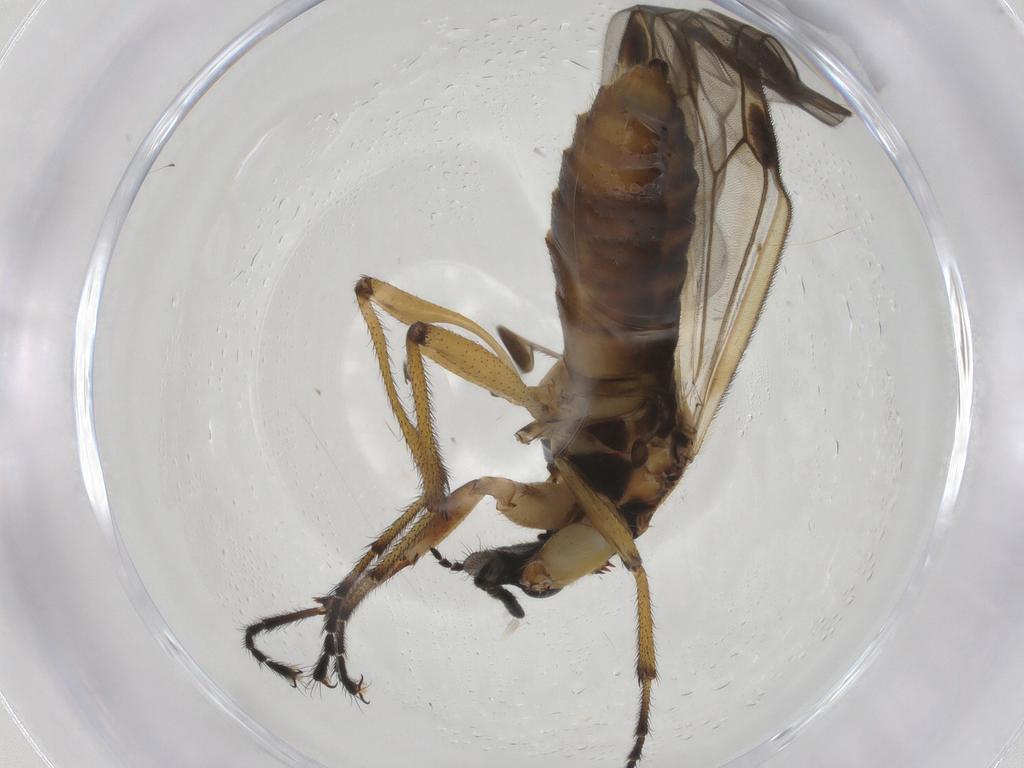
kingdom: Animalia
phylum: Arthropoda
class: Insecta
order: Diptera
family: Bibionidae
